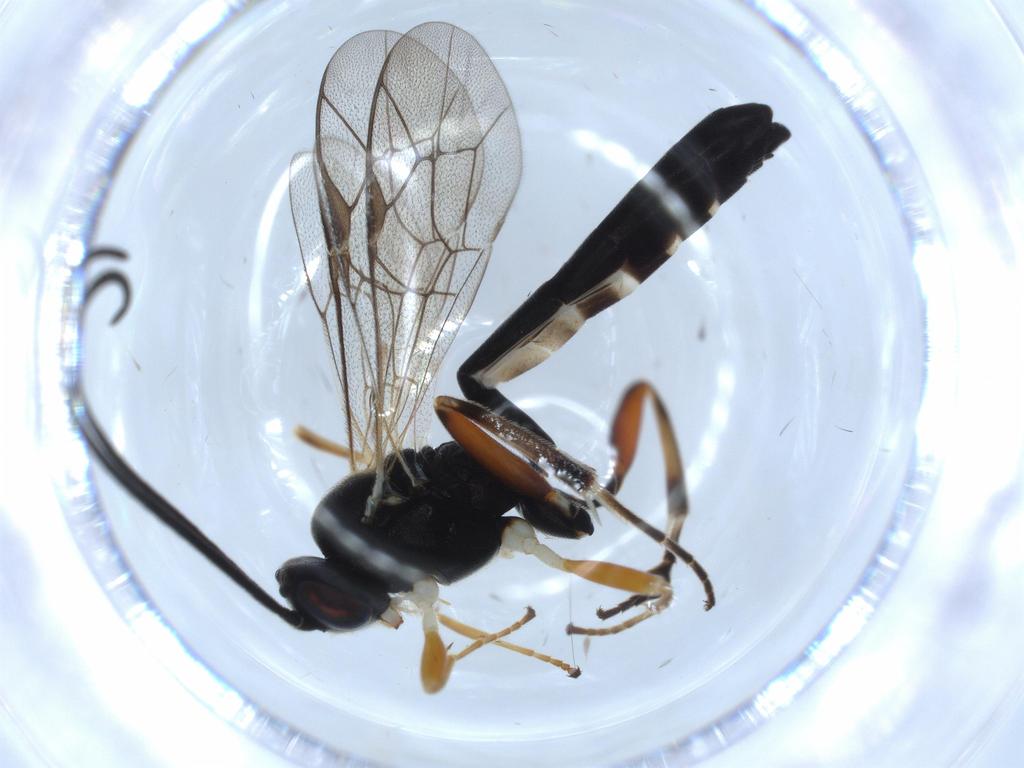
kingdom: Animalia
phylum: Arthropoda
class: Insecta
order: Hymenoptera
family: Ichneumonidae
